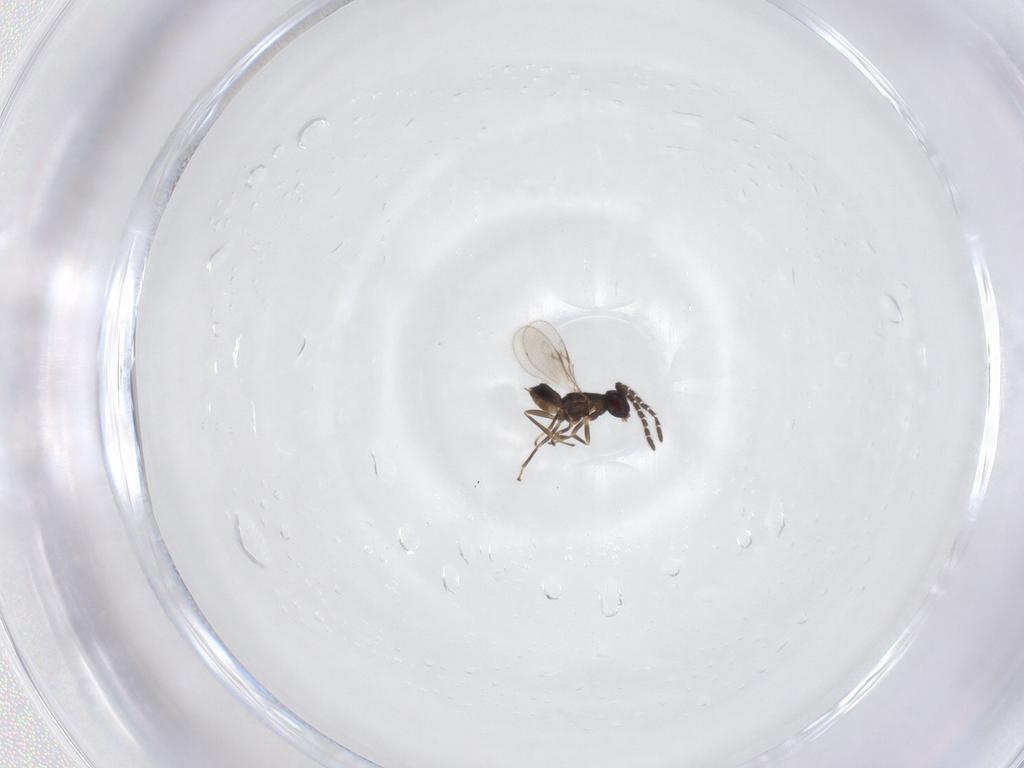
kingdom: Animalia
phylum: Arthropoda
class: Insecta
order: Hymenoptera
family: Encyrtidae
